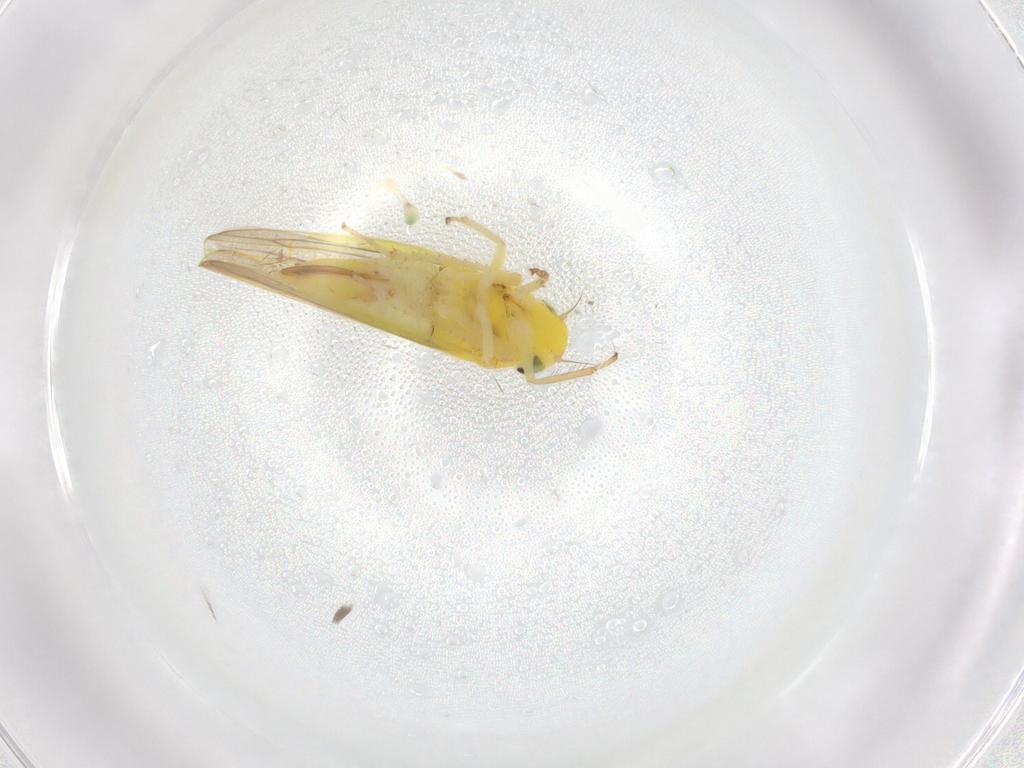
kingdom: Animalia
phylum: Arthropoda
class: Insecta
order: Hemiptera
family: Cicadellidae
